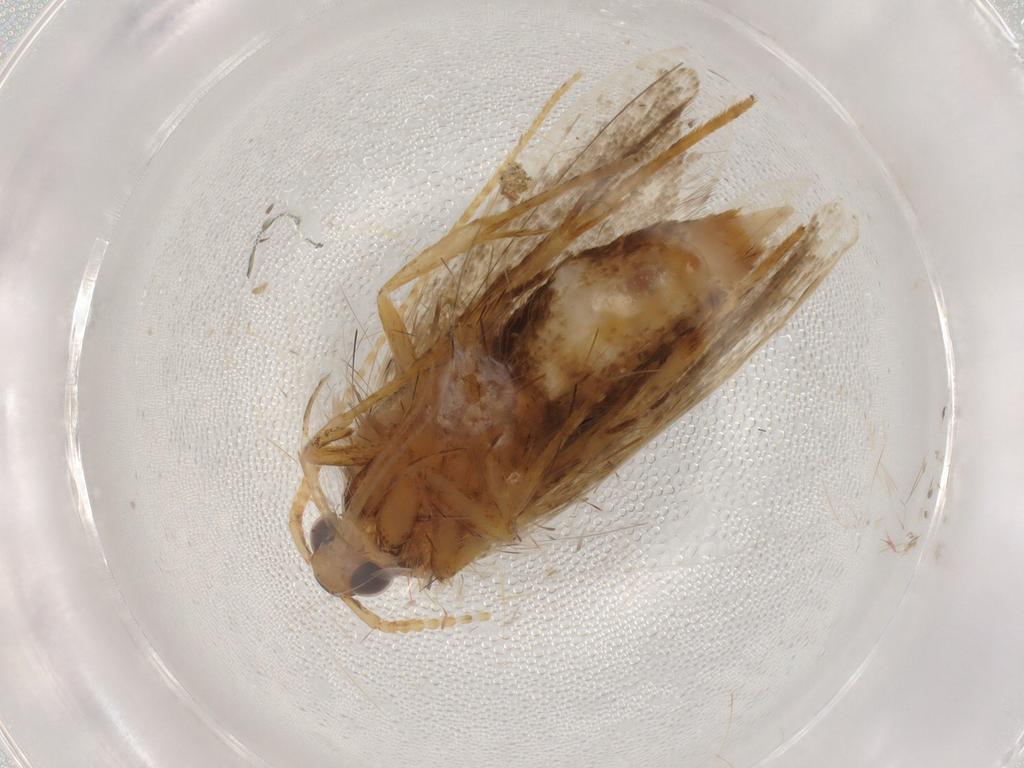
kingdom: Animalia
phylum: Arthropoda
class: Insecta
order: Lepidoptera
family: Lecithoceridae
